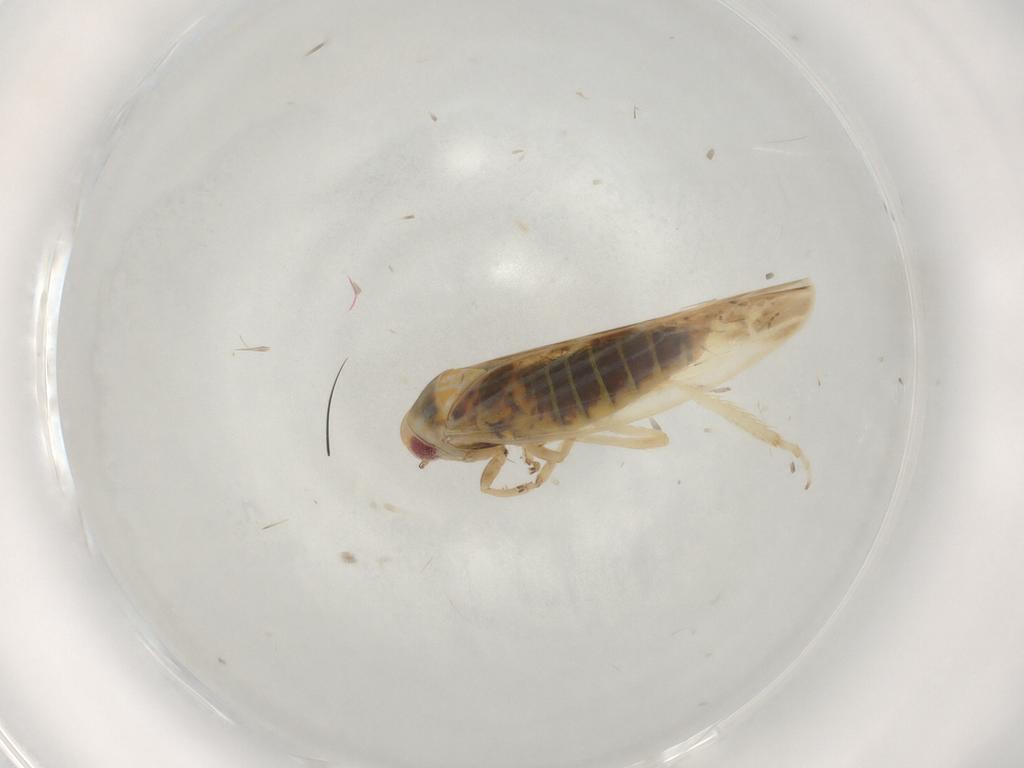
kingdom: Animalia
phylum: Arthropoda
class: Insecta
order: Hemiptera
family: Cicadellidae
